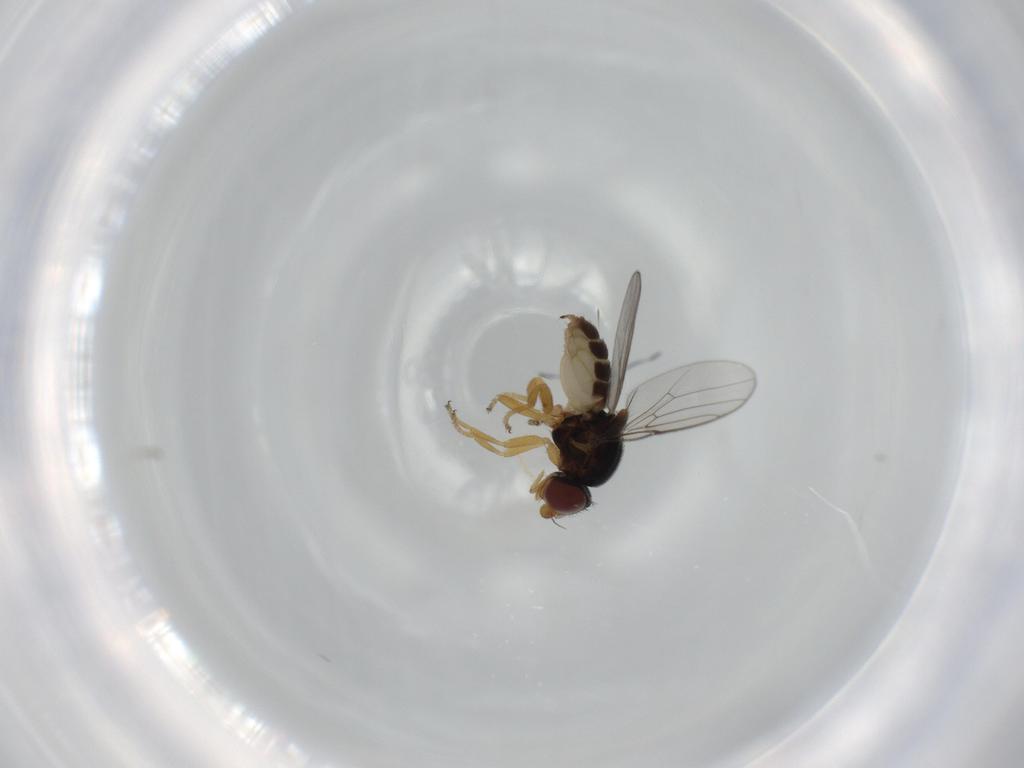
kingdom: Animalia
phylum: Arthropoda
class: Insecta
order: Diptera
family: Chloropidae
